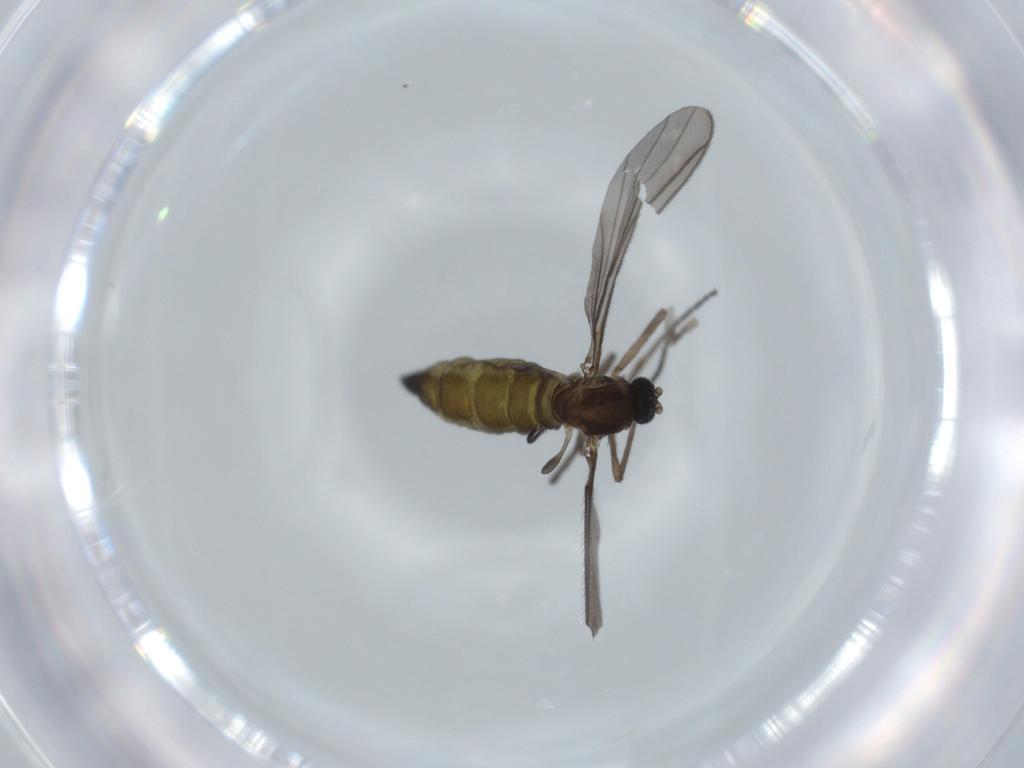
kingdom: Animalia
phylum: Arthropoda
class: Insecta
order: Diptera
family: Sciaridae
